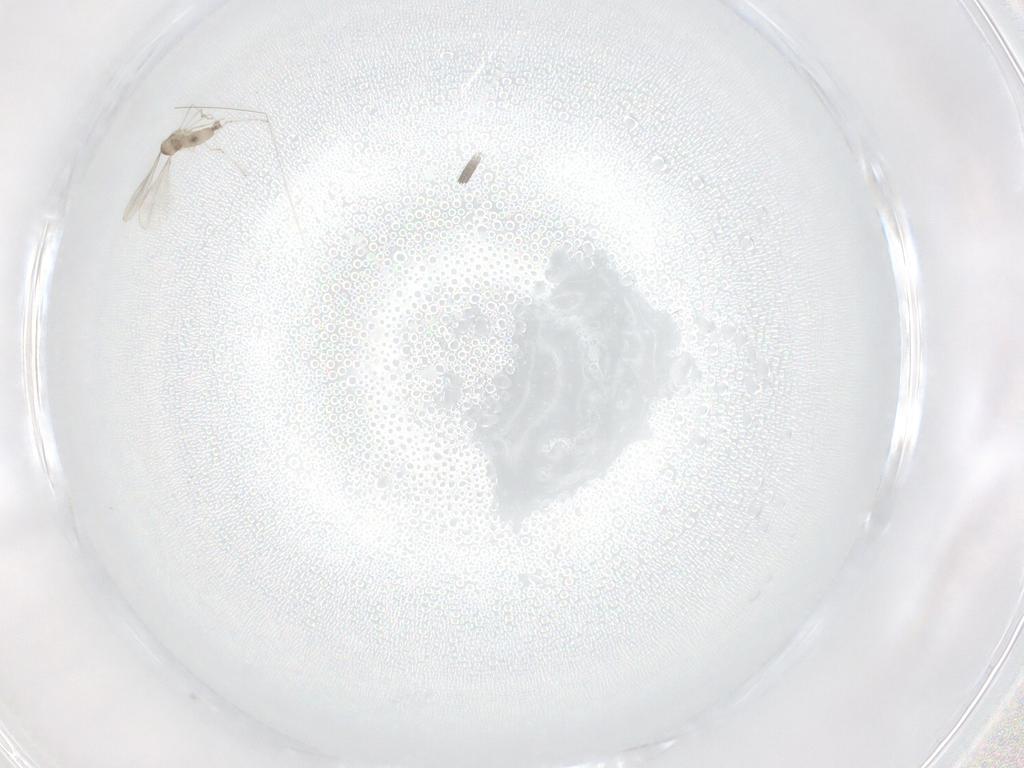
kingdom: Animalia
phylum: Arthropoda
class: Insecta
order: Diptera
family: Cecidomyiidae
